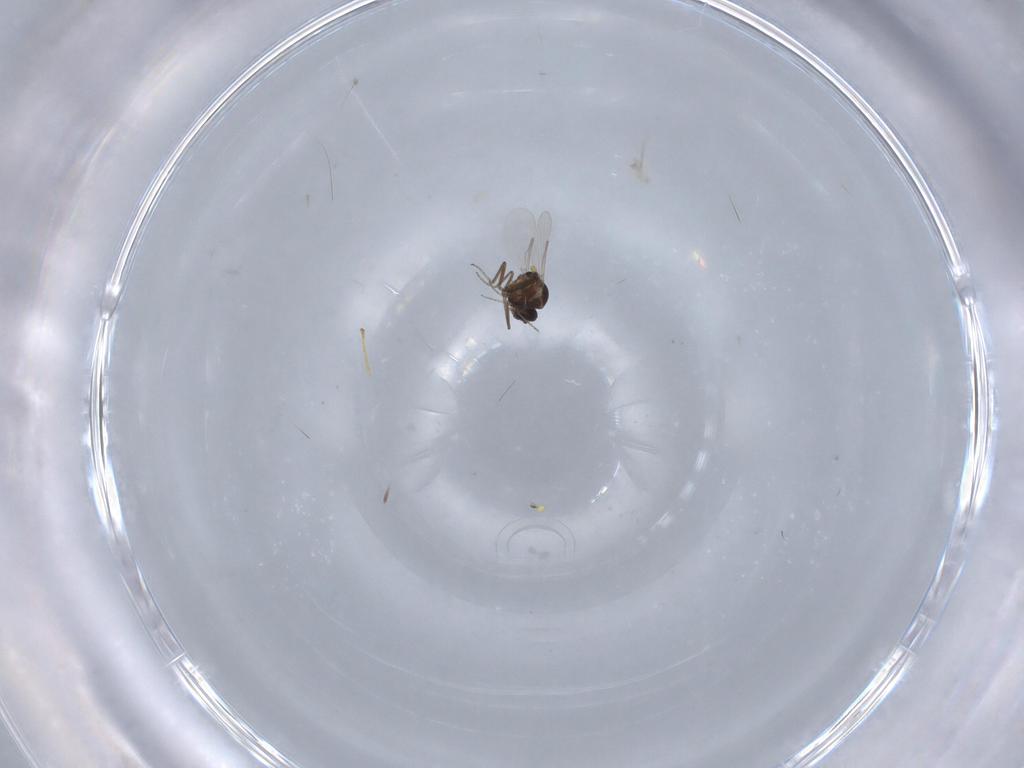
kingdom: Animalia
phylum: Arthropoda
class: Insecta
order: Diptera
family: Ceratopogonidae
